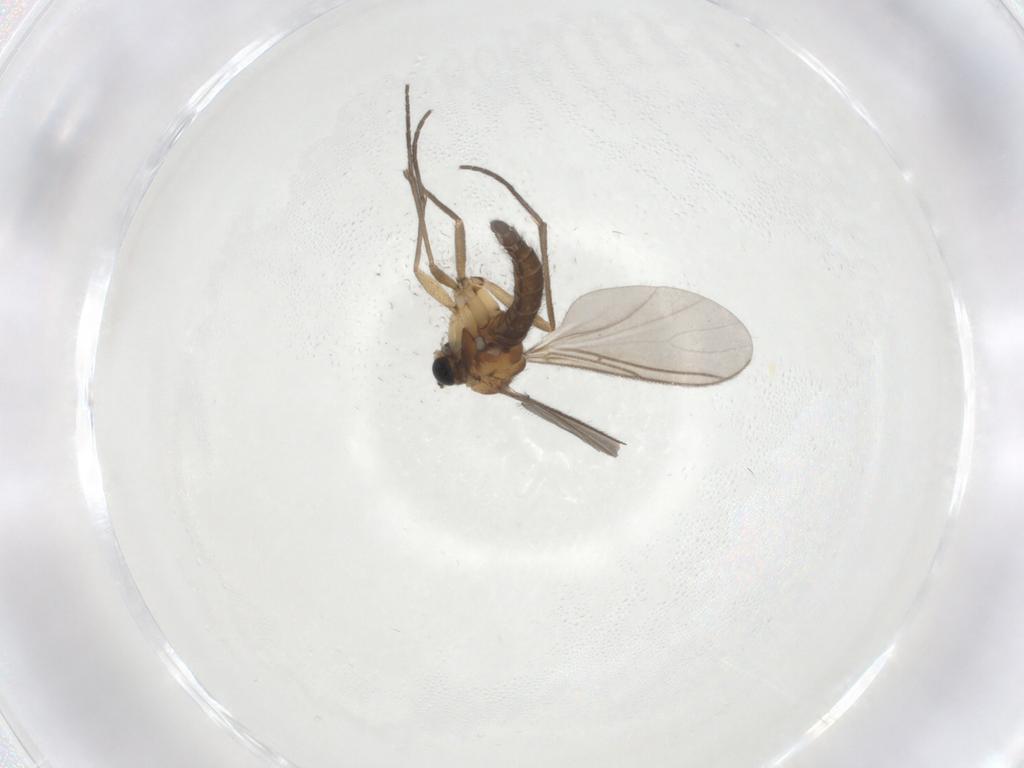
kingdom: Animalia
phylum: Arthropoda
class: Insecta
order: Diptera
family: Sciaridae
